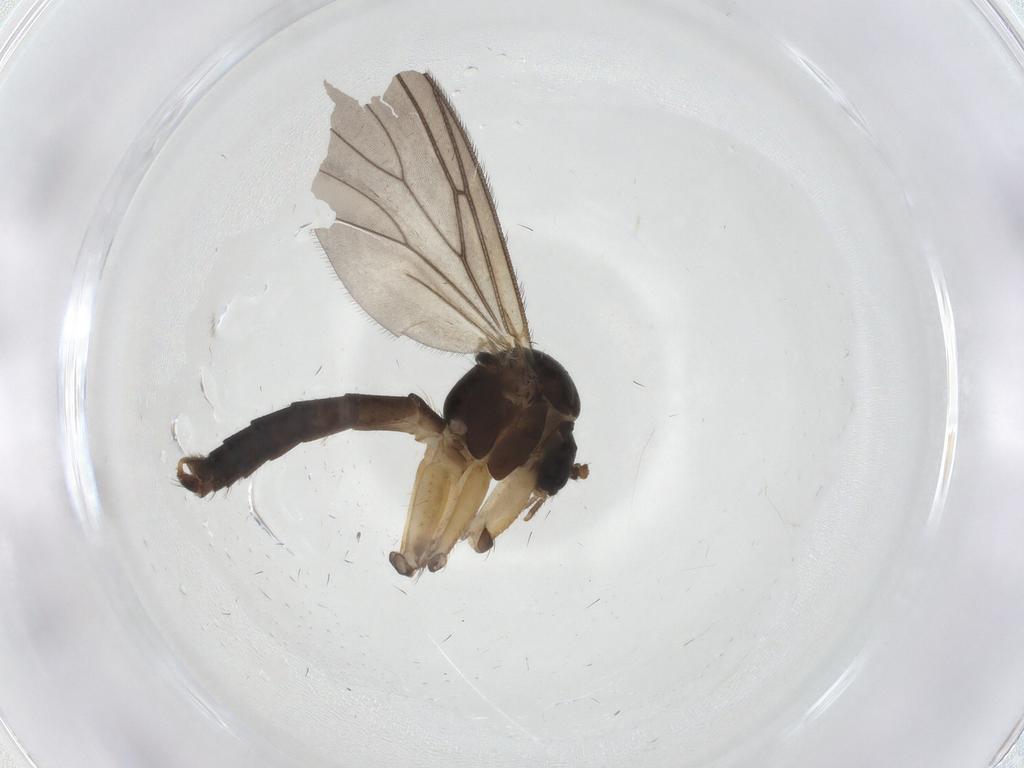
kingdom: Animalia
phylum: Arthropoda
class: Insecta
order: Diptera
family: Mycetophilidae
